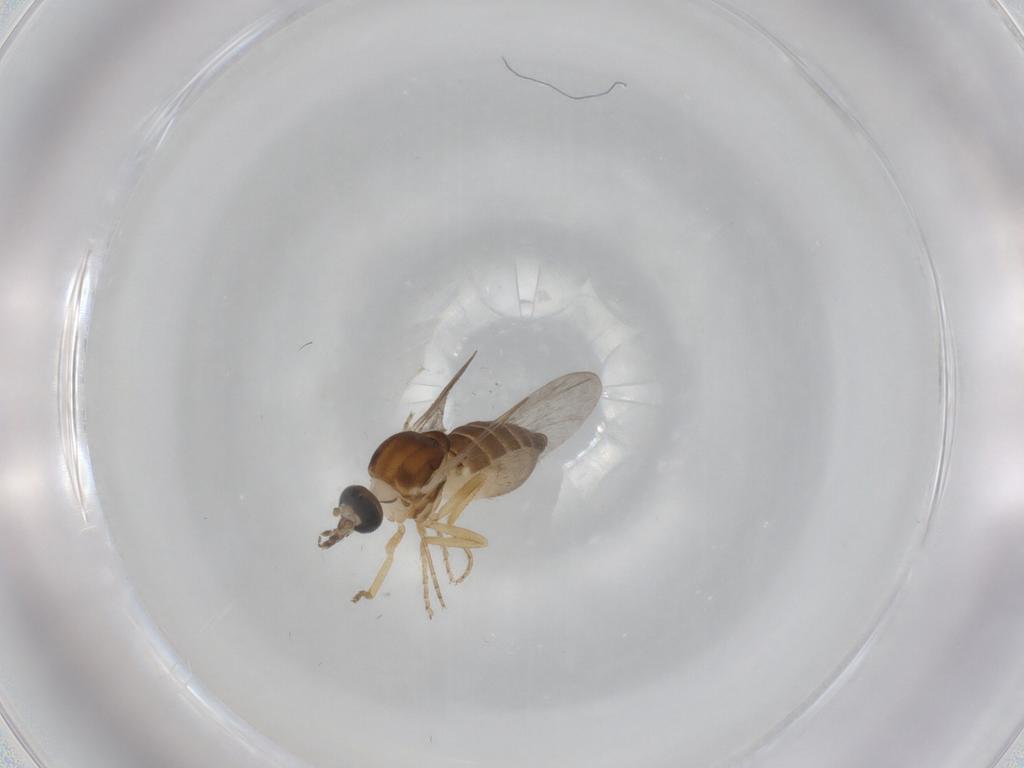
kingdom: Animalia
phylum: Arthropoda
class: Insecta
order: Diptera
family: Ceratopogonidae
